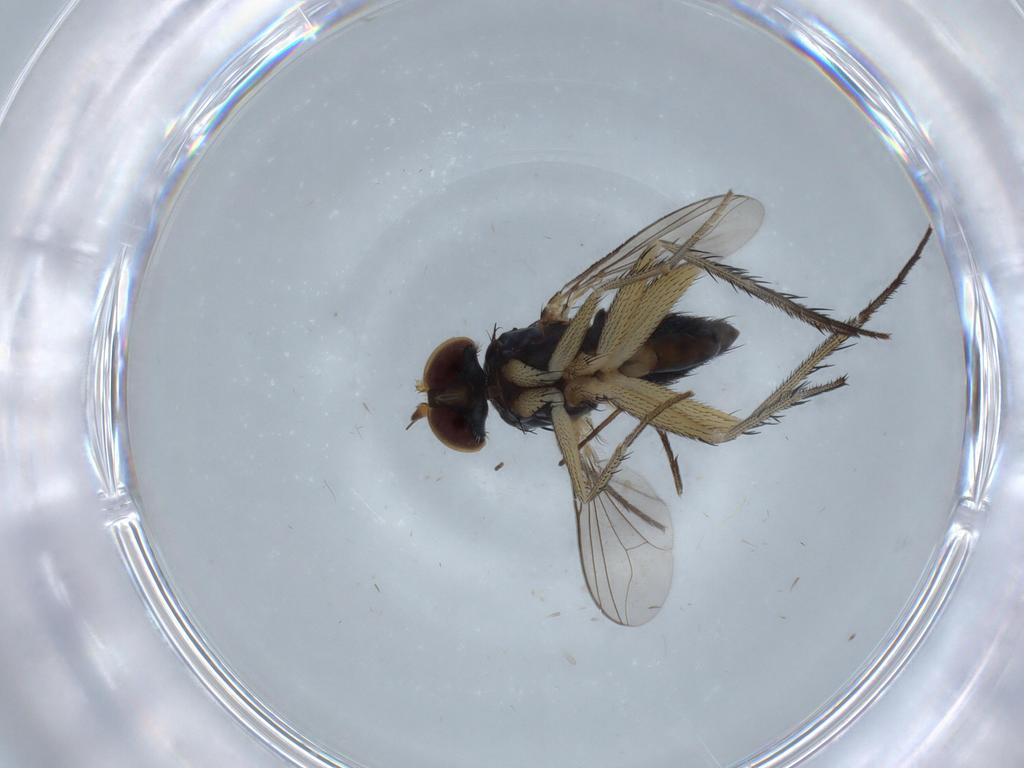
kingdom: Animalia
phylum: Arthropoda
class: Insecta
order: Diptera
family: Dolichopodidae
